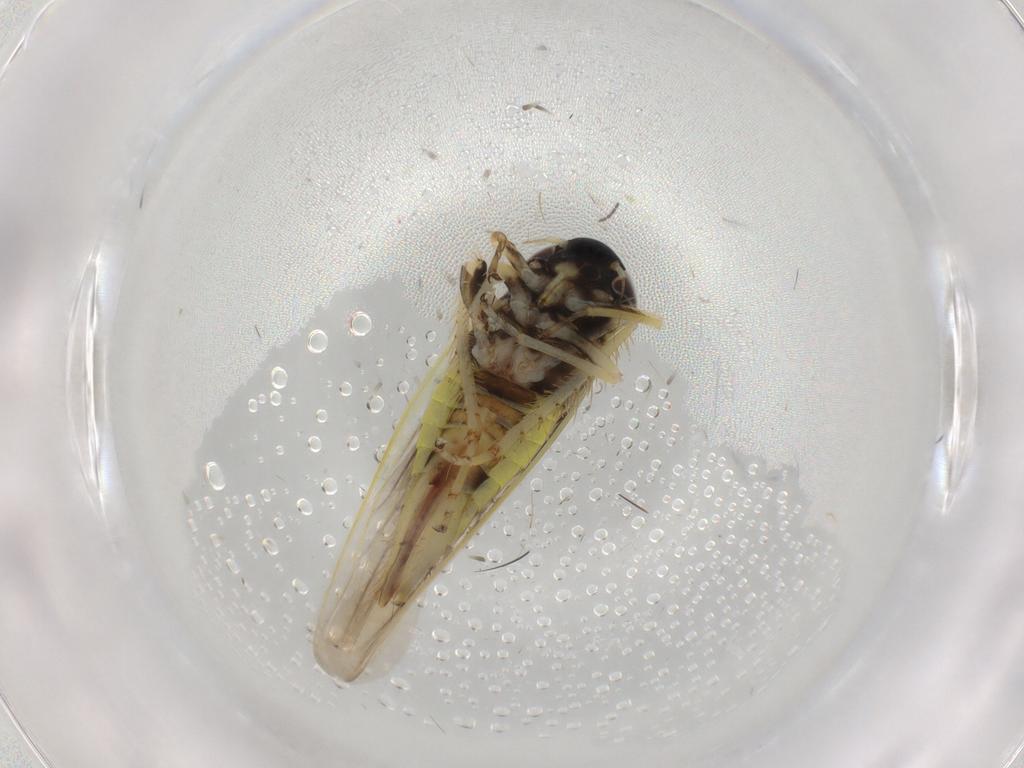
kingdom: Animalia
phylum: Arthropoda
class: Insecta
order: Hemiptera
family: Cicadellidae
